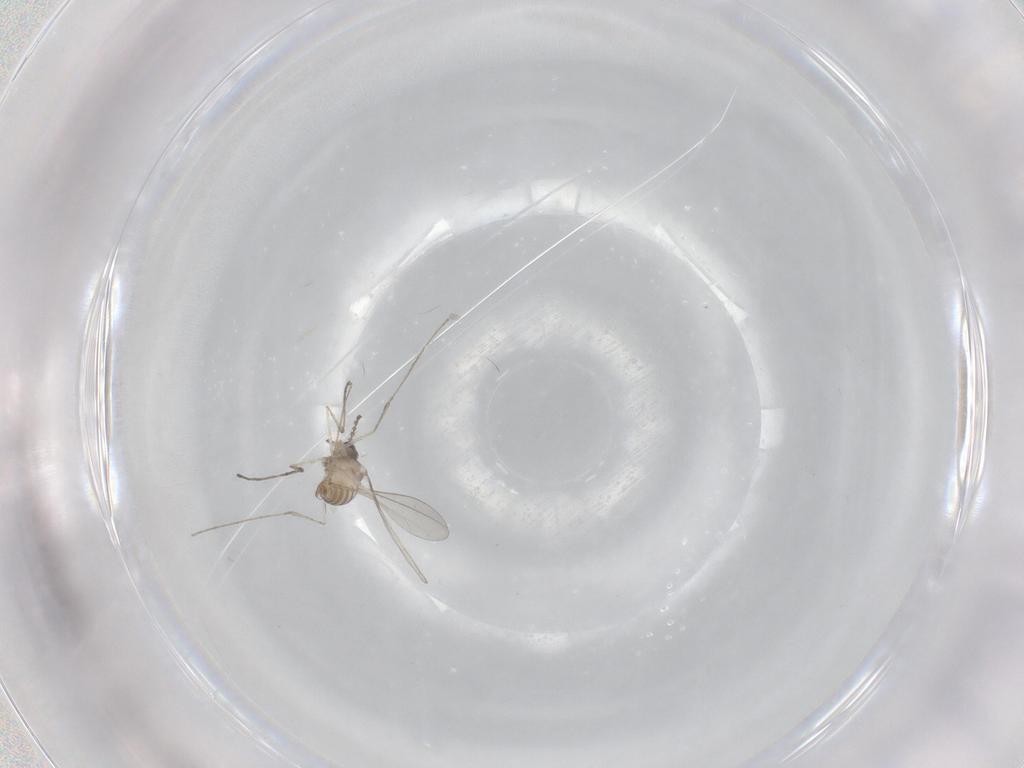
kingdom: Animalia
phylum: Arthropoda
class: Insecta
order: Diptera
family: Cecidomyiidae
